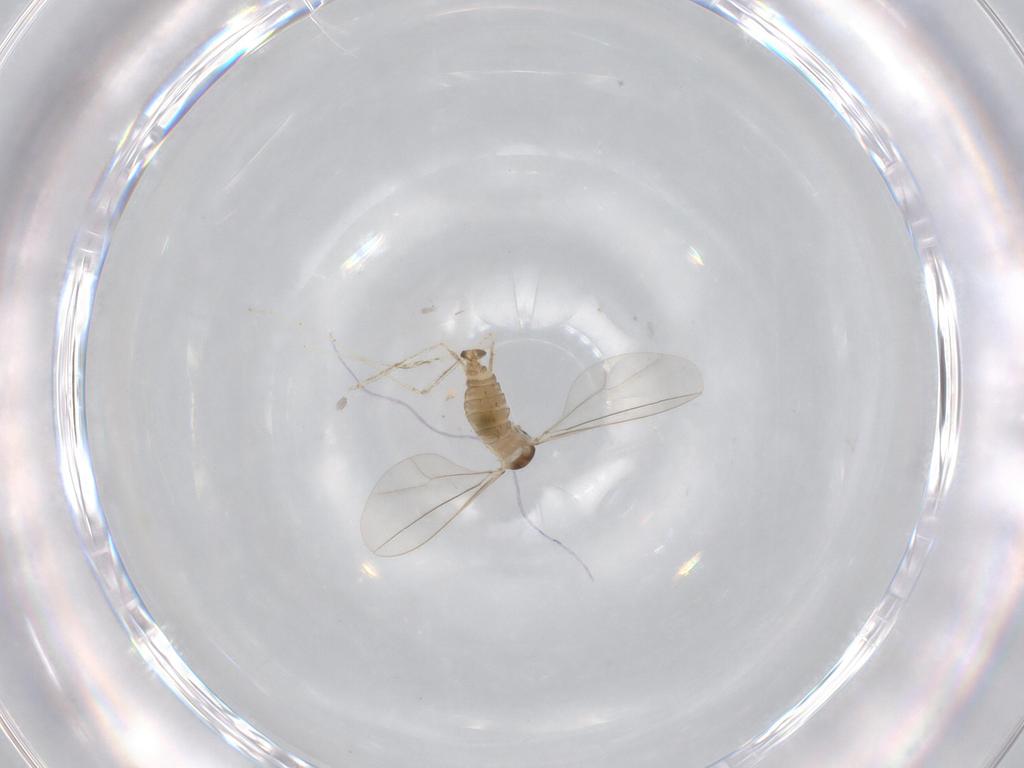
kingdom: Animalia
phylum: Arthropoda
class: Insecta
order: Diptera
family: Cecidomyiidae
